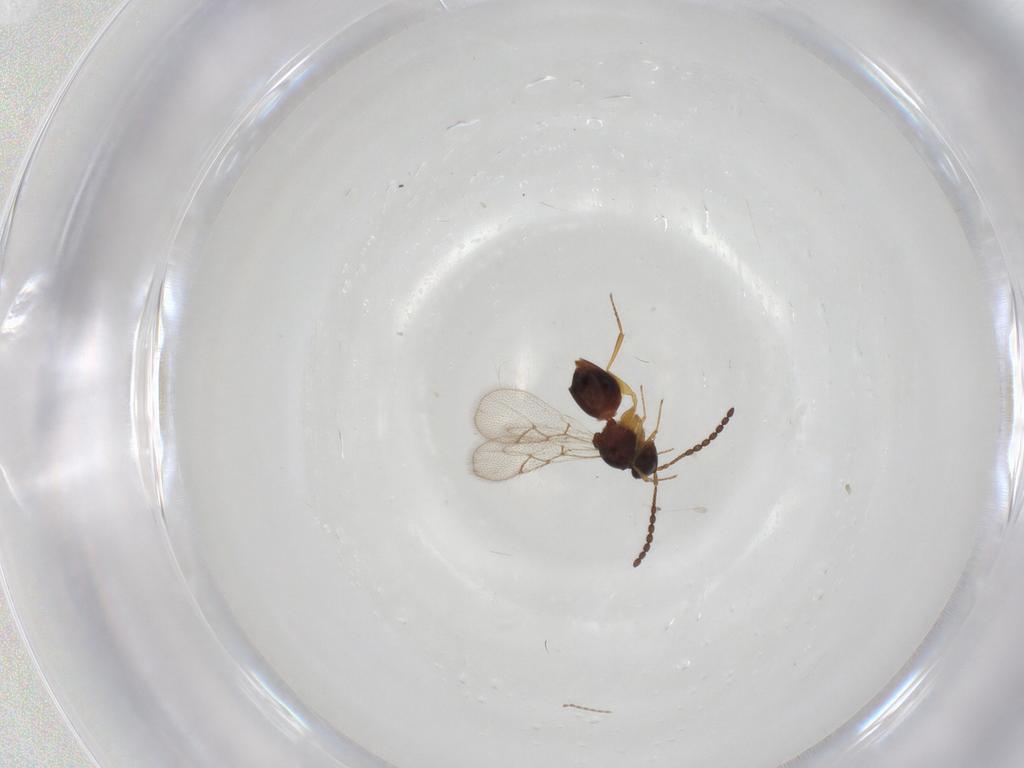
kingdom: Animalia
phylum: Arthropoda
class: Insecta
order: Hymenoptera
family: Figitidae
